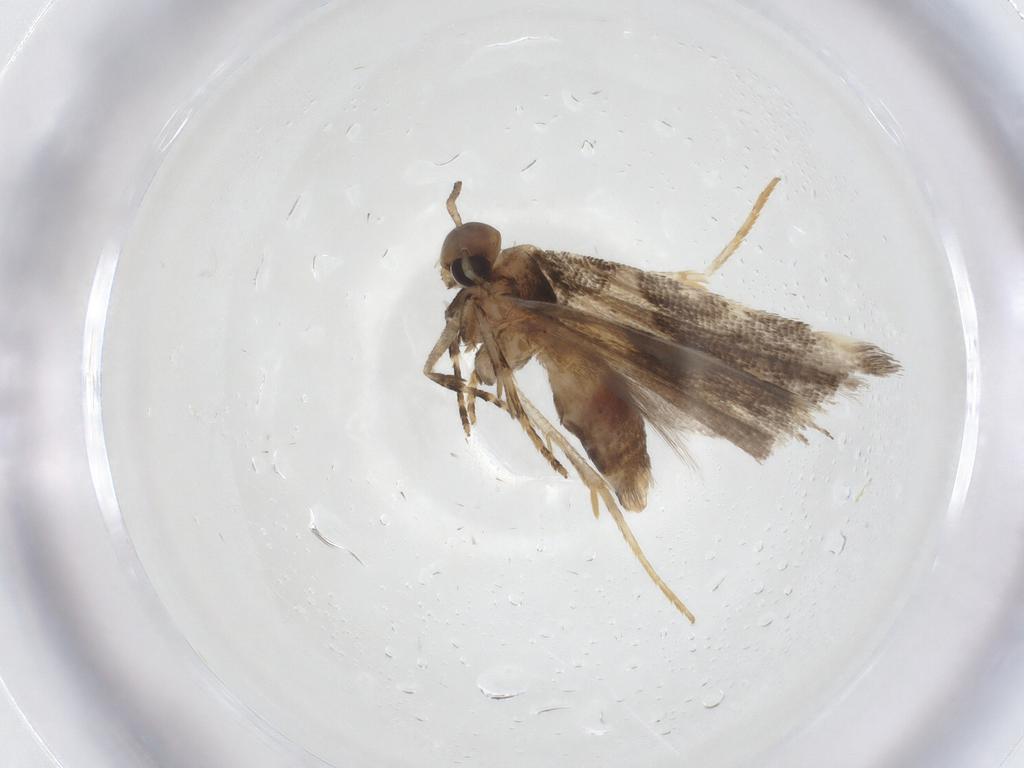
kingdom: Animalia
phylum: Arthropoda
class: Insecta
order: Lepidoptera
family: Gelechiidae
